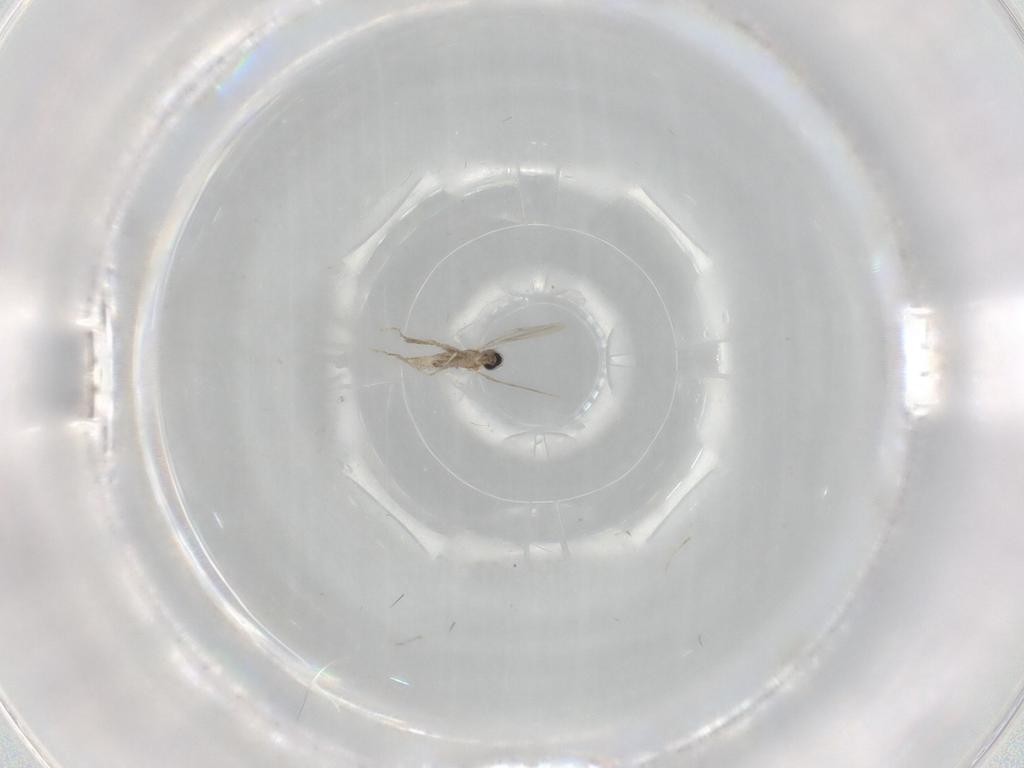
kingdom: Animalia
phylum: Arthropoda
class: Insecta
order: Diptera
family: Cecidomyiidae
